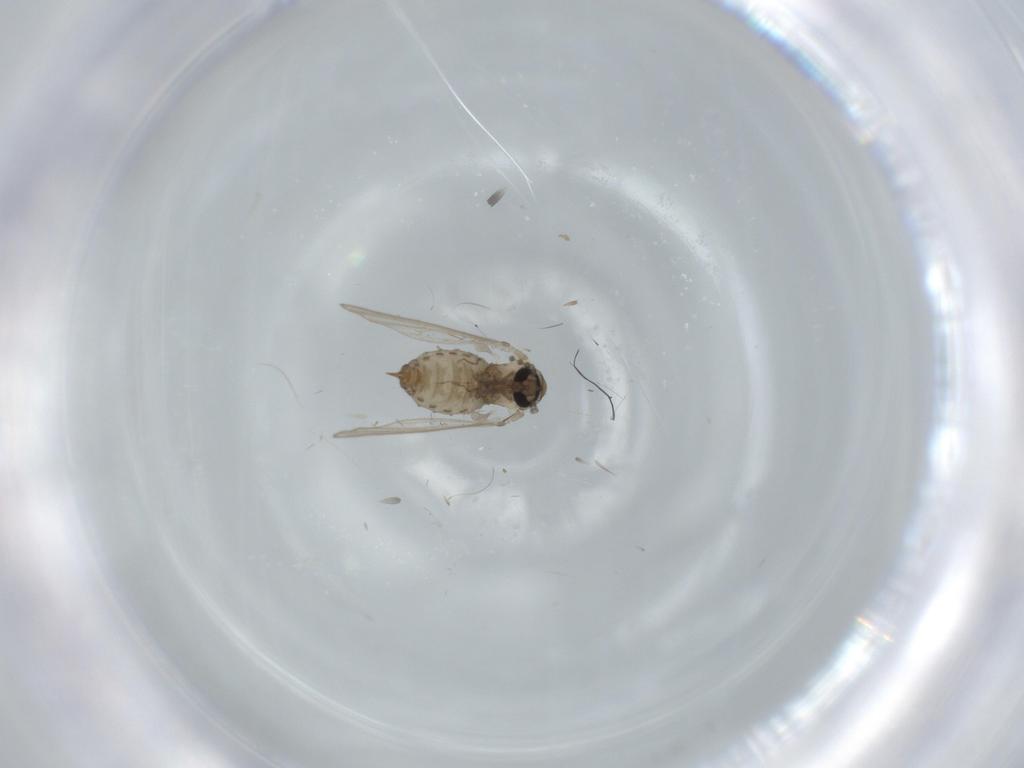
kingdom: Animalia
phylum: Arthropoda
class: Insecta
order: Diptera
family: Psychodidae
